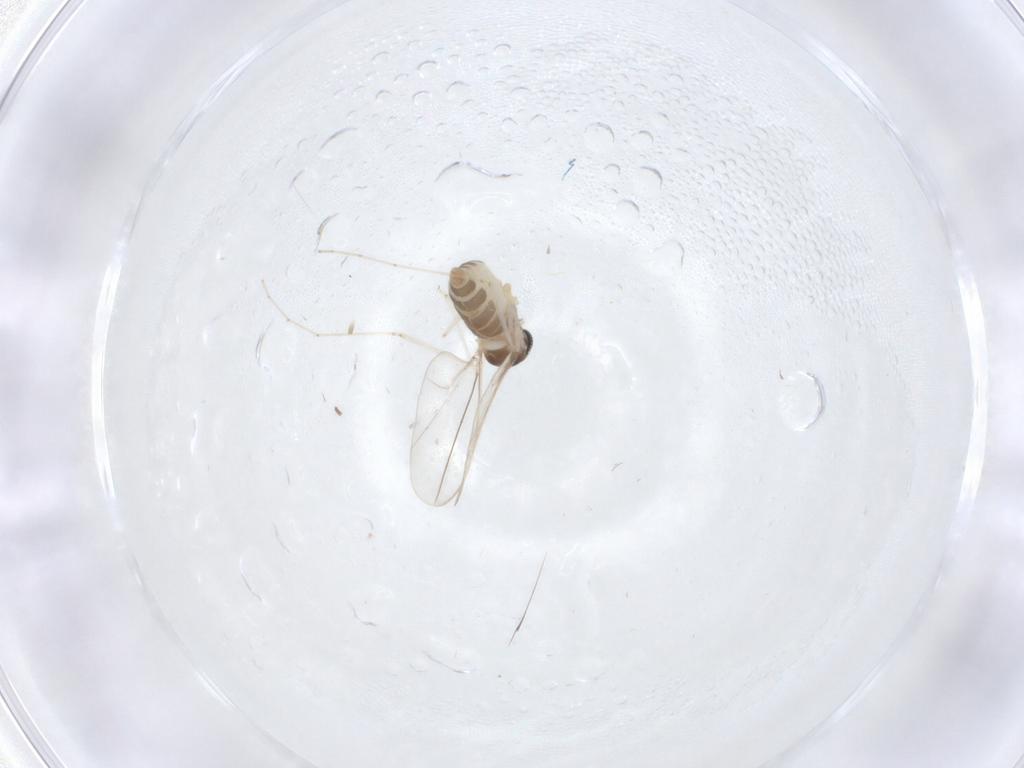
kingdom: Animalia
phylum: Arthropoda
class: Insecta
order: Diptera
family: Cecidomyiidae
